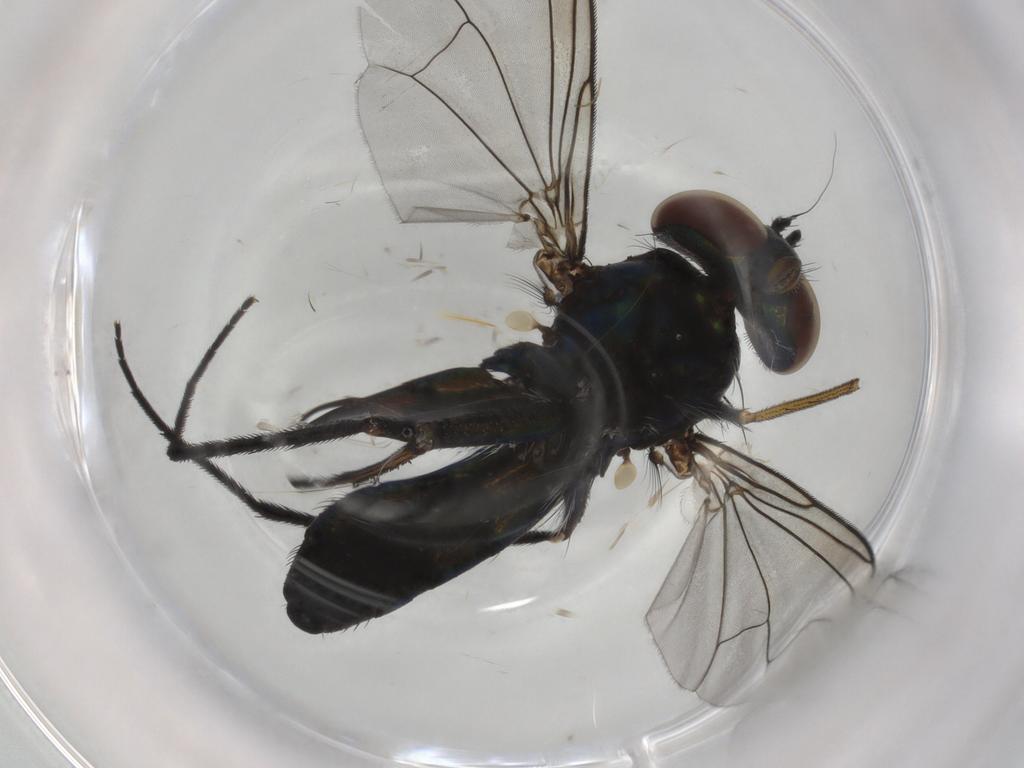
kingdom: Animalia
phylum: Arthropoda
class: Insecta
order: Diptera
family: Dolichopodidae
